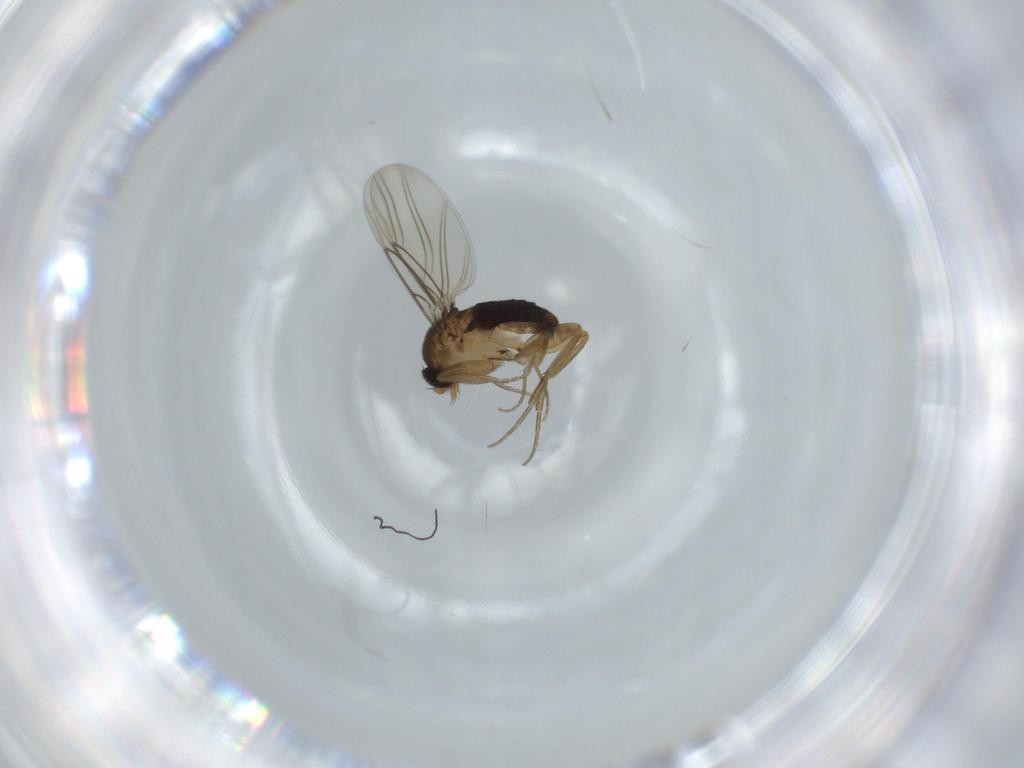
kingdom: Animalia
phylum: Arthropoda
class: Insecta
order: Diptera
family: Phoridae
